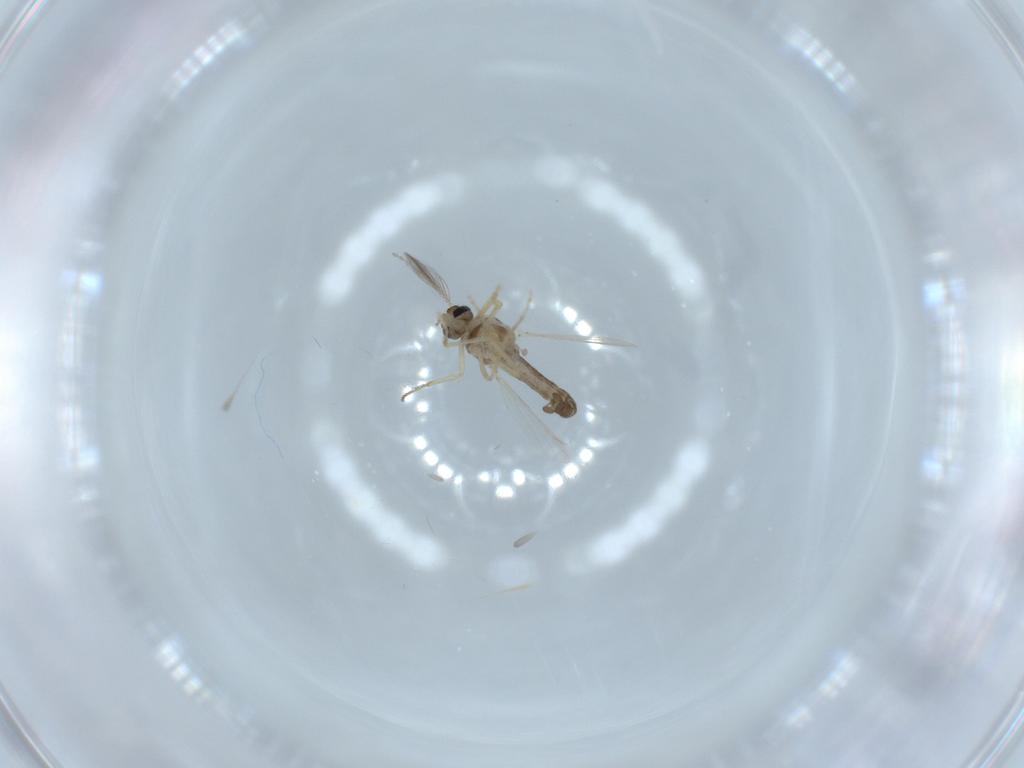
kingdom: Animalia
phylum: Arthropoda
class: Insecta
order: Diptera
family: Ceratopogonidae
